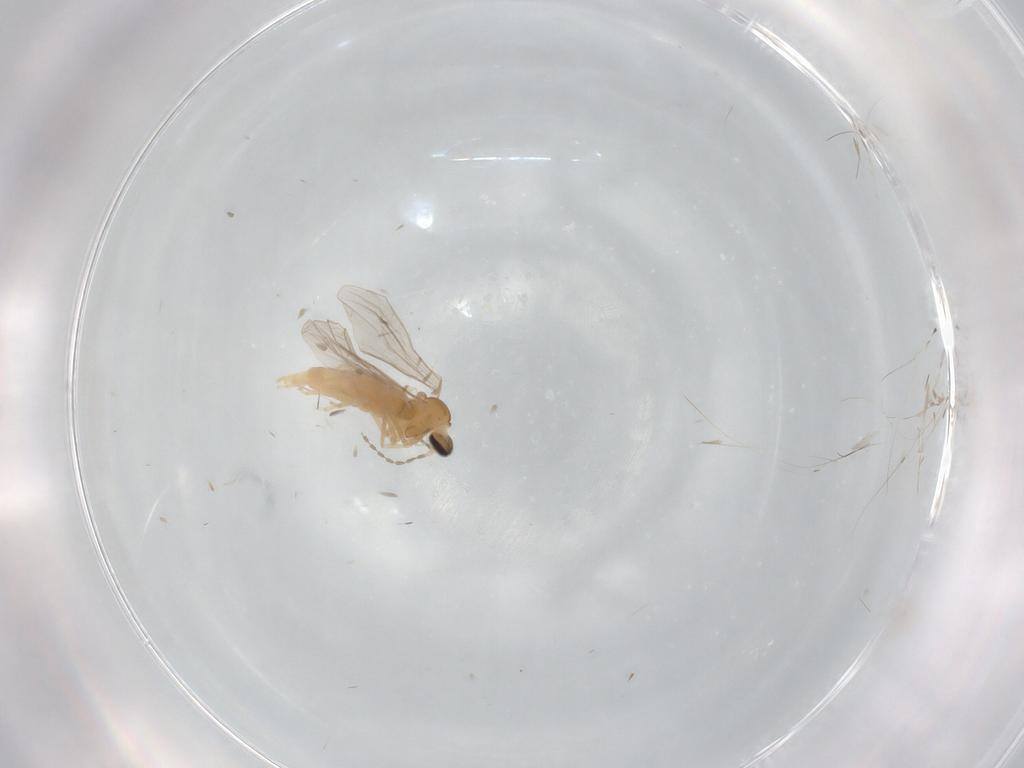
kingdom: Animalia
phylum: Arthropoda
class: Insecta
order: Diptera
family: Cecidomyiidae
